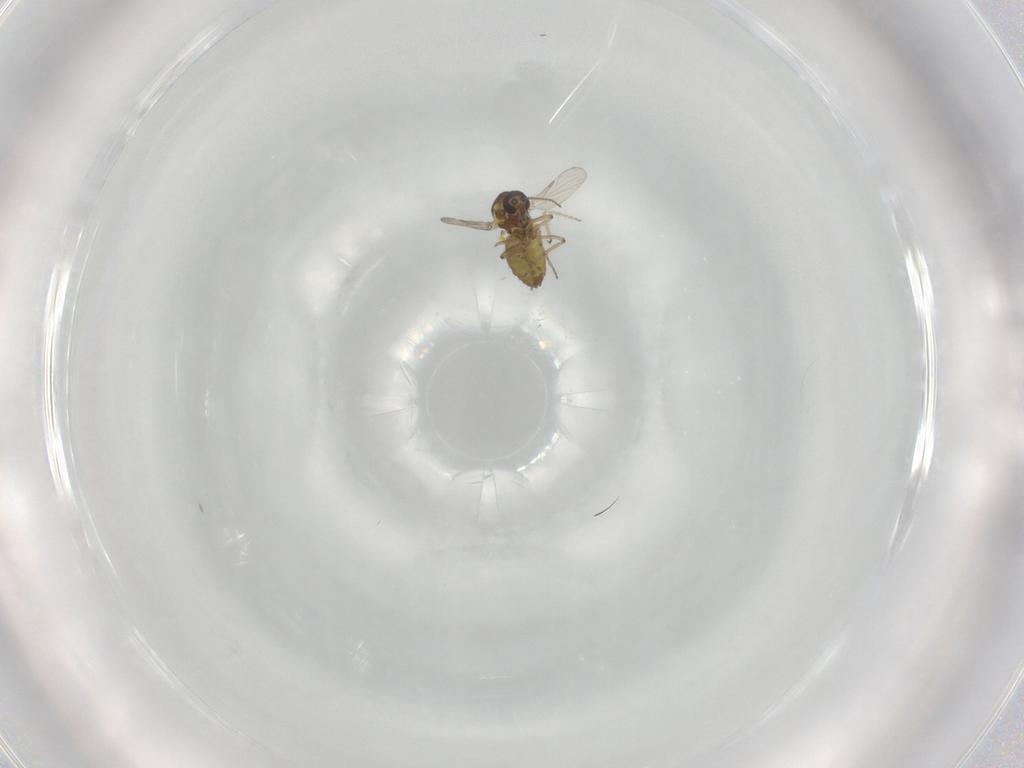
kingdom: Animalia
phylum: Arthropoda
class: Insecta
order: Diptera
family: Ceratopogonidae
